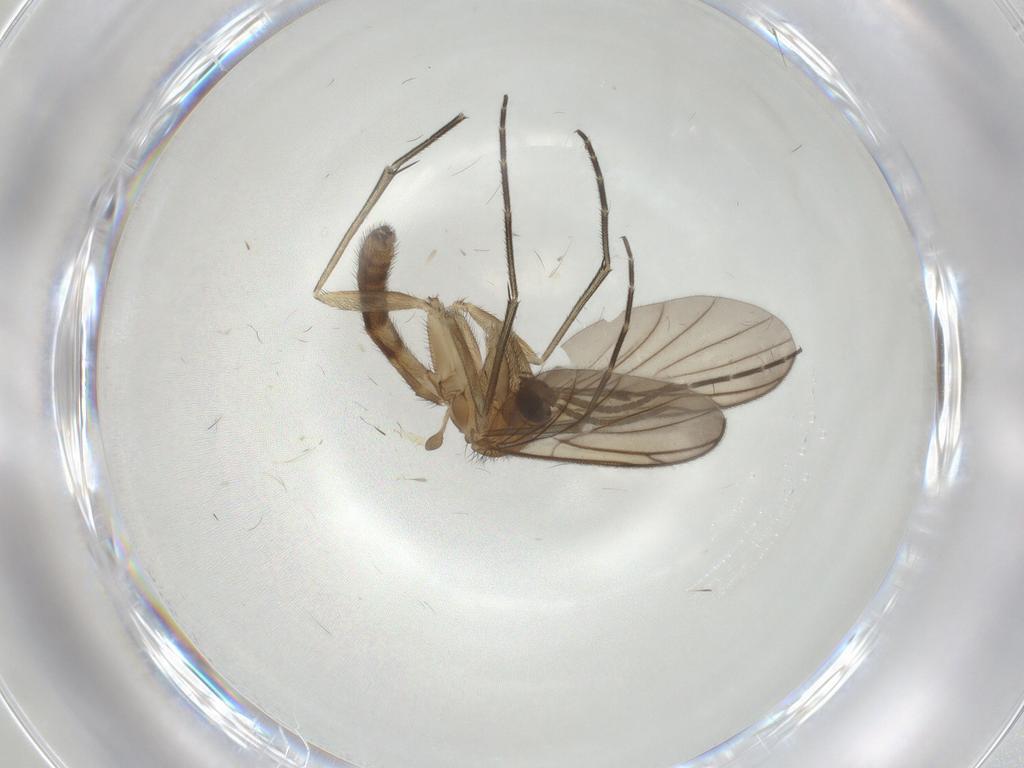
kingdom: Animalia
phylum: Arthropoda
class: Insecta
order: Diptera
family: Keroplatidae
